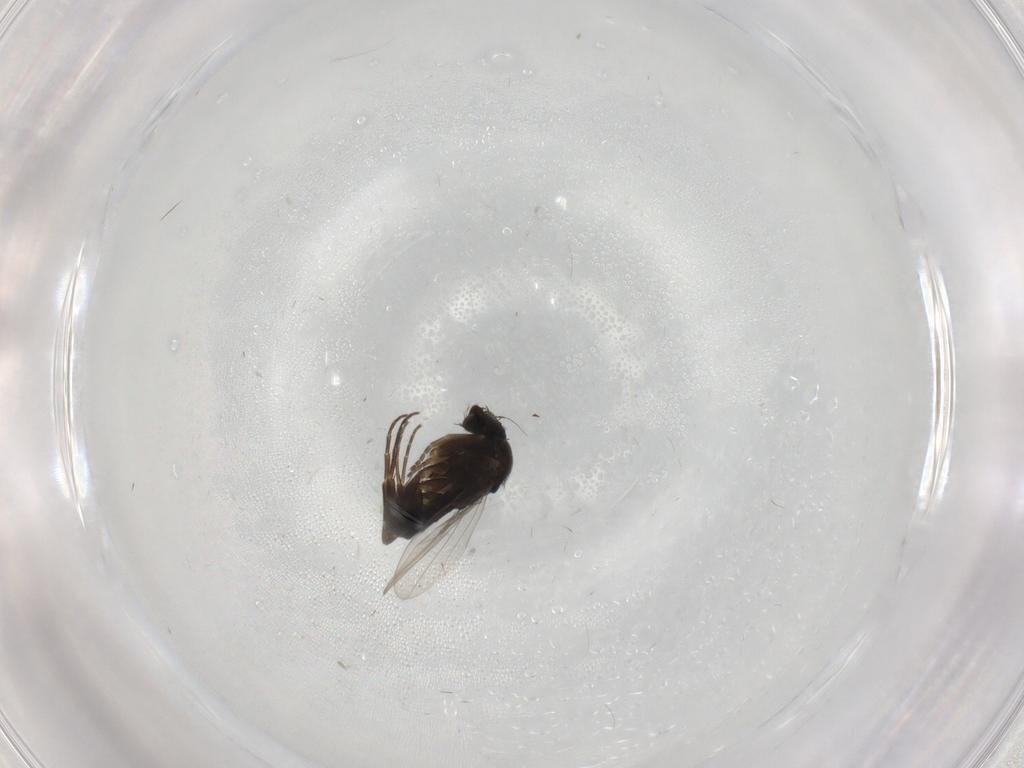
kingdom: Animalia
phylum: Arthropoda
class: Insecta
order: Diptera
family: Phoridae
